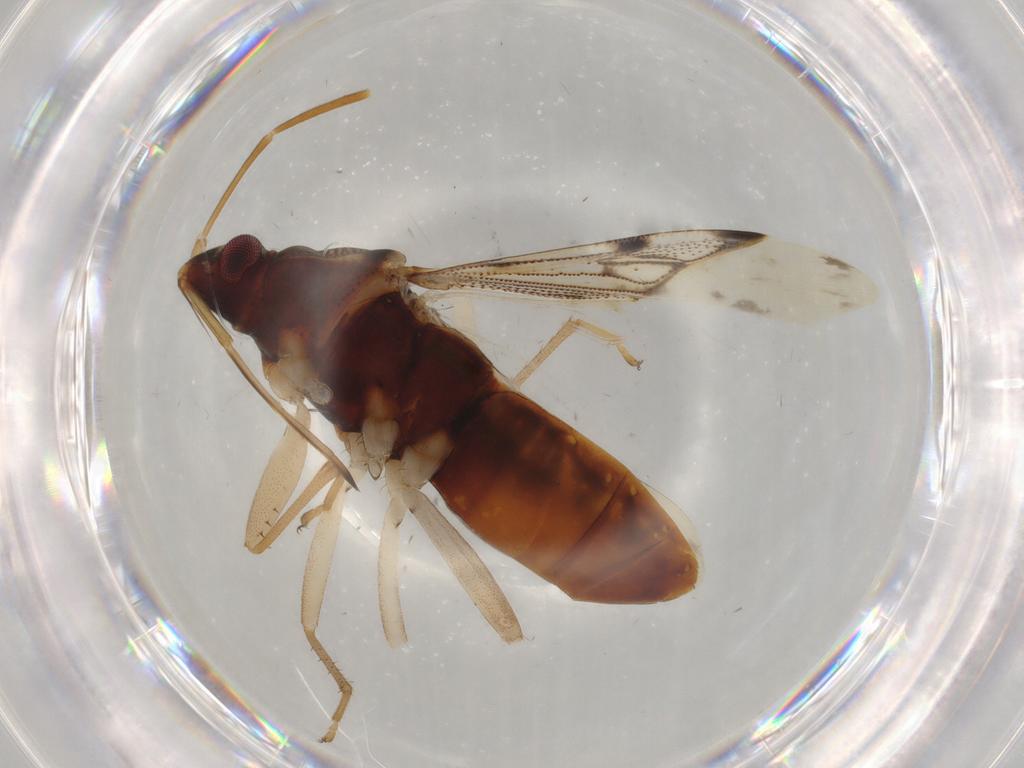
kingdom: Animalia
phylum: Arthropoda
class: Insecta
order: Hemiptera
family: Rhyparochromidae
